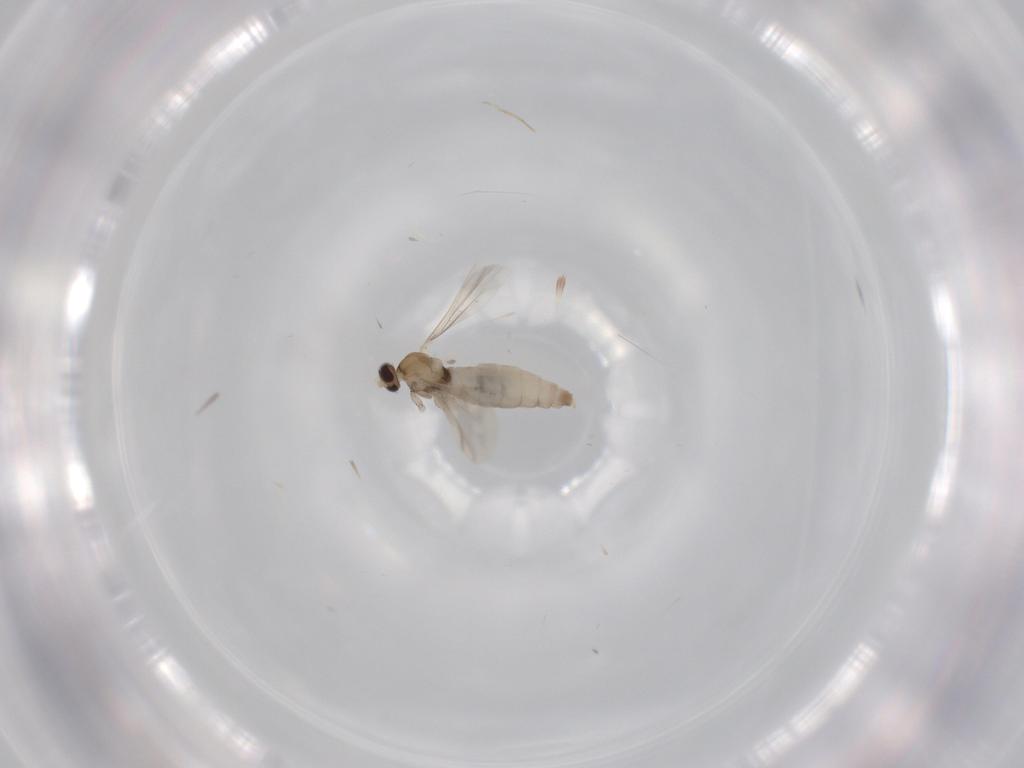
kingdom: Animalia
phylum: Arthropoda
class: Insecta
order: Diptera
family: Cecidomyiidae
